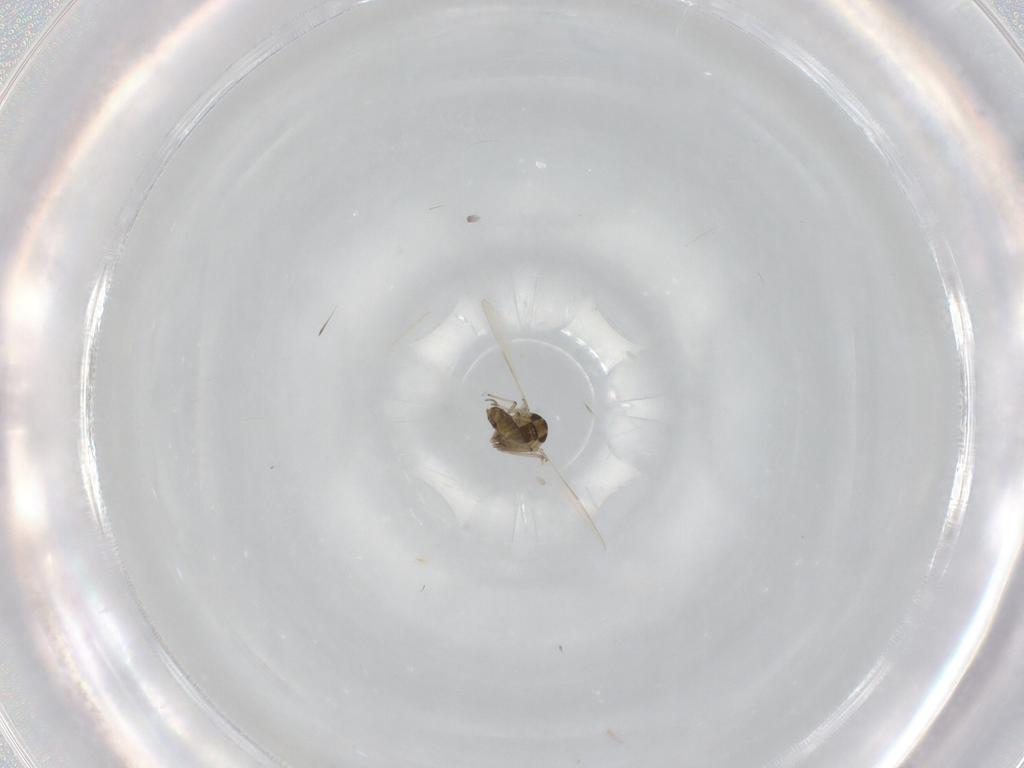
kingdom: Animalia
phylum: Arthropoda
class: Insecta
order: Diptera
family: Chironomidae
